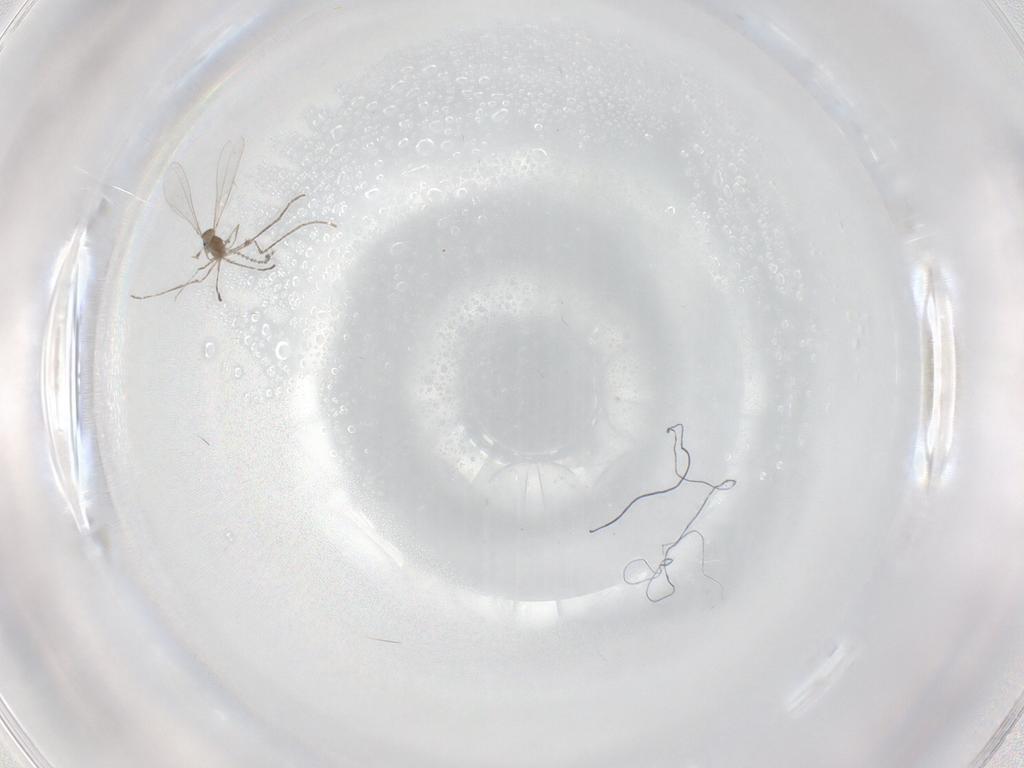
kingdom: Animalia
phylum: Arthropoda
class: Insecta
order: Diptera
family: Cecidomyiidae
